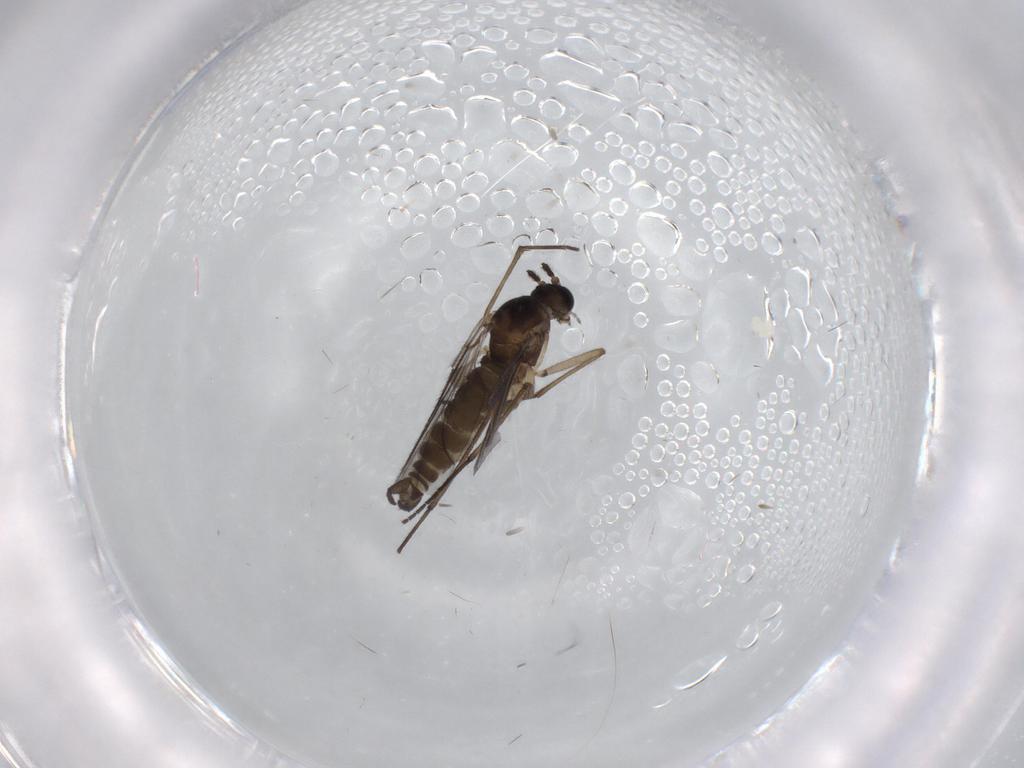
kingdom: Animalia
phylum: Arthropoda
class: Insecta
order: Diptera
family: Sciaridae
